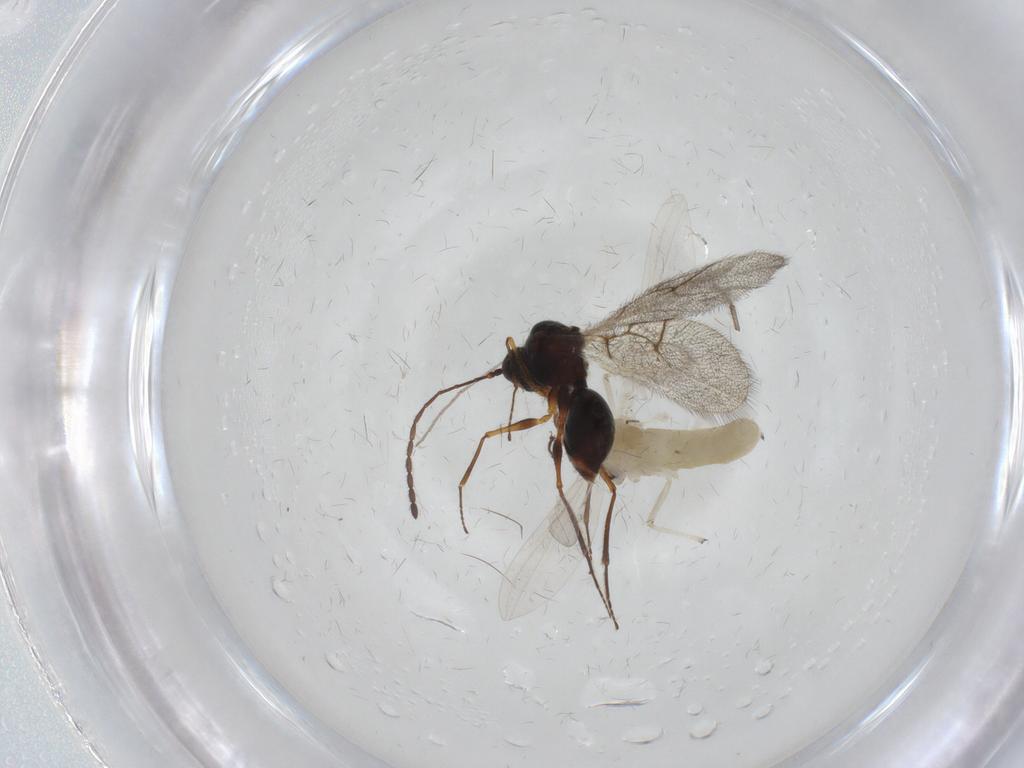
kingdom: Animalia
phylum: Arthropoda
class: Insecta
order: Diptera
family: Chironomidae
